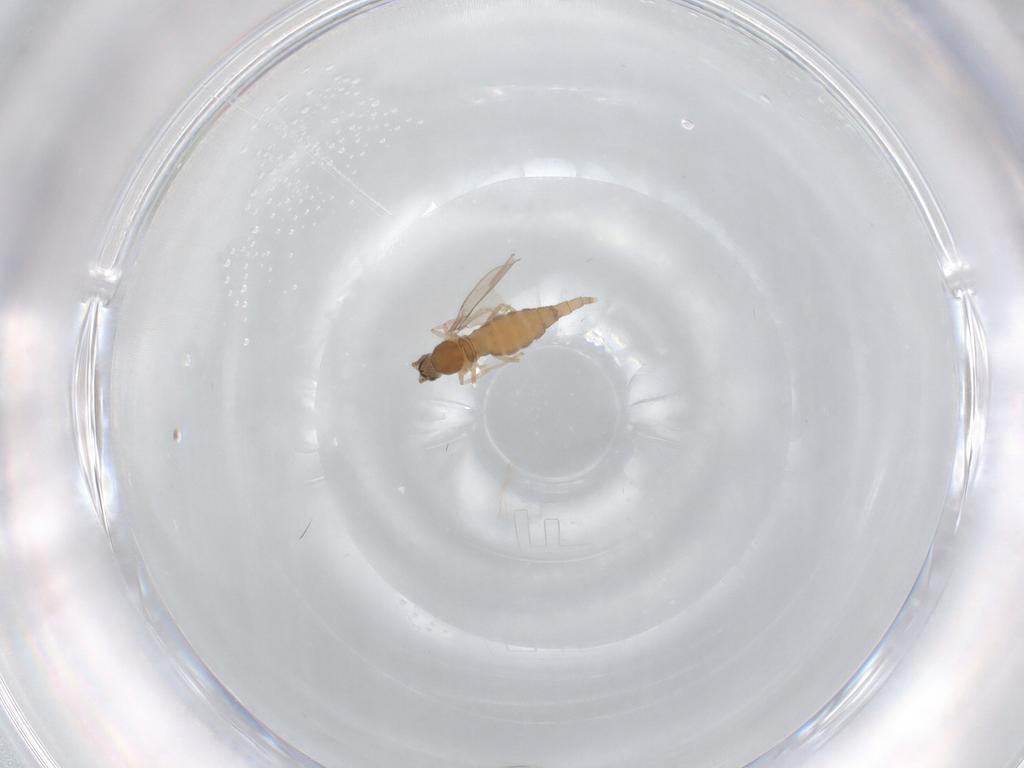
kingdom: Animalia
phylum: Arthropoda
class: Insecta
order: Diptera
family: Cecidomyiidae
